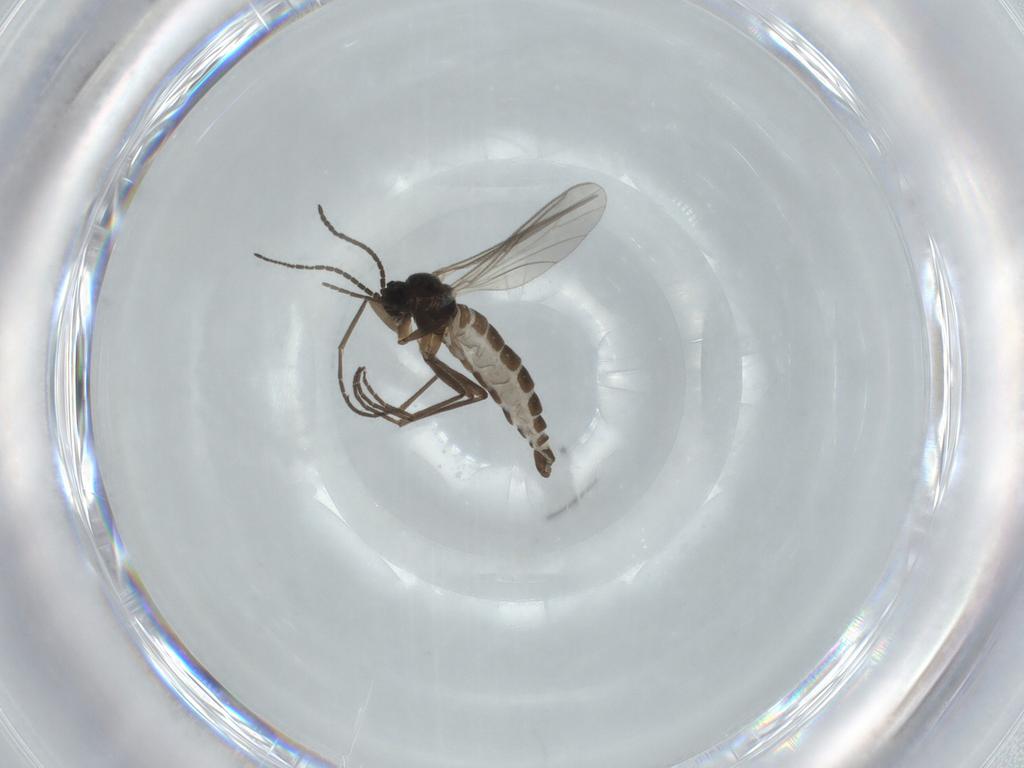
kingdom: Animalia
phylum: Arthropoda
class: Insecta
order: Diptera
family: Sciaridae
